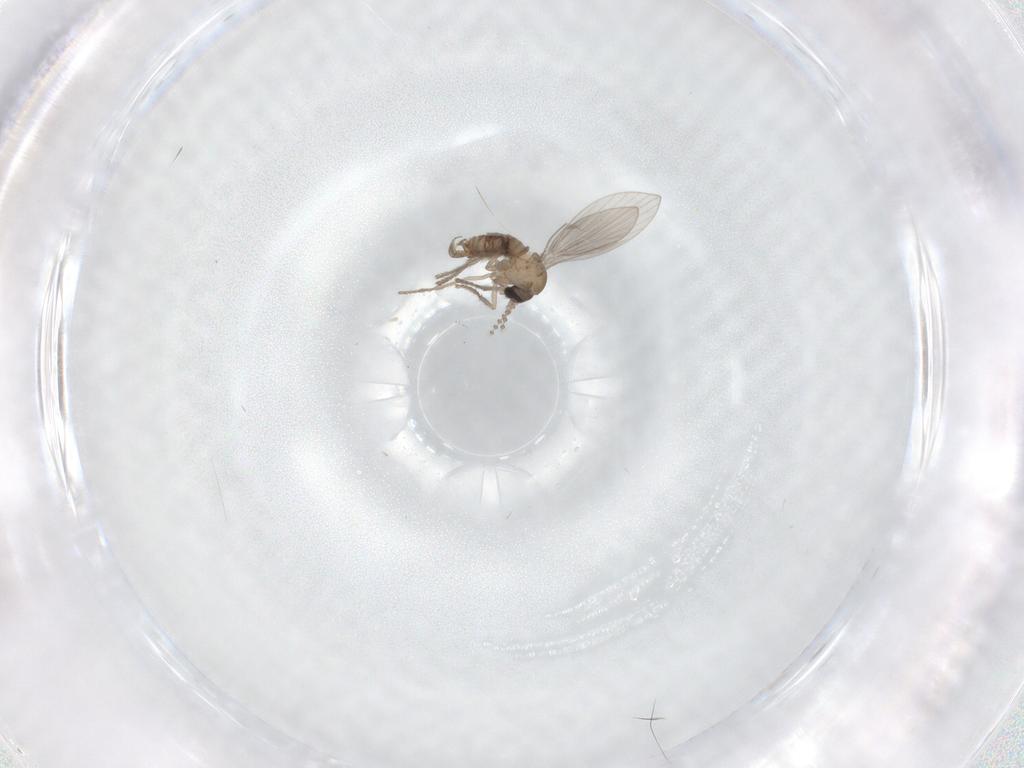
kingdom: Animalia
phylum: Arthropoda
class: Insecta
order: Diptera
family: Psychodidae
